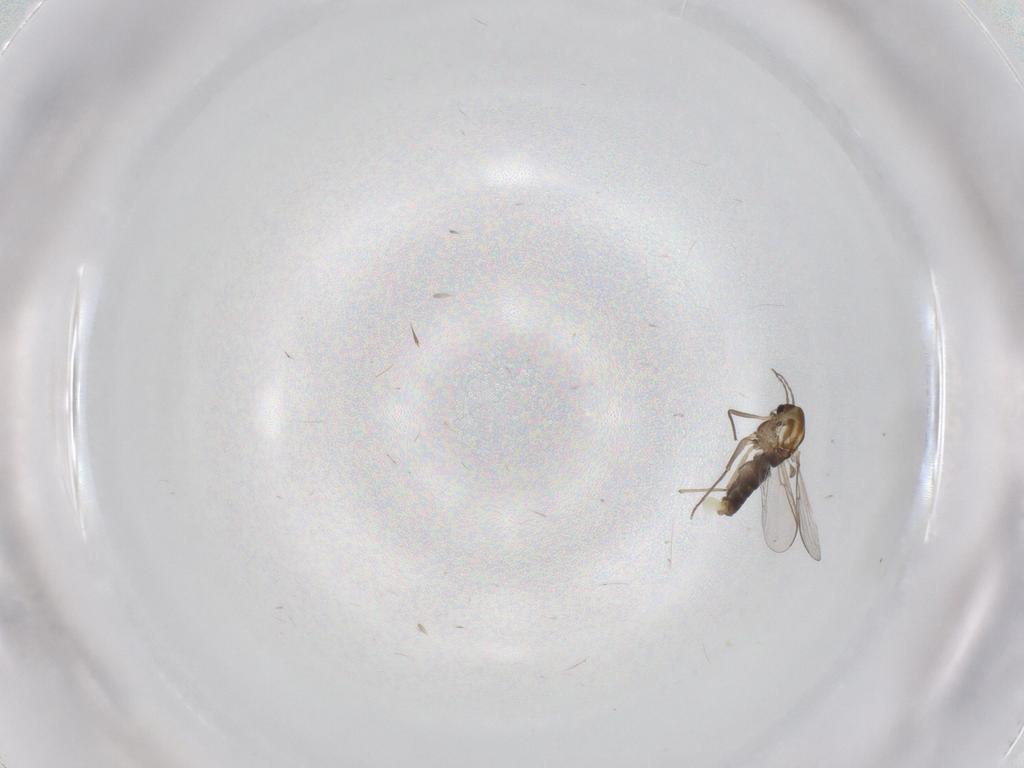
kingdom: Animalia
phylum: Arthropoda
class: Insecta
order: Diptera
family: Chironomidae
